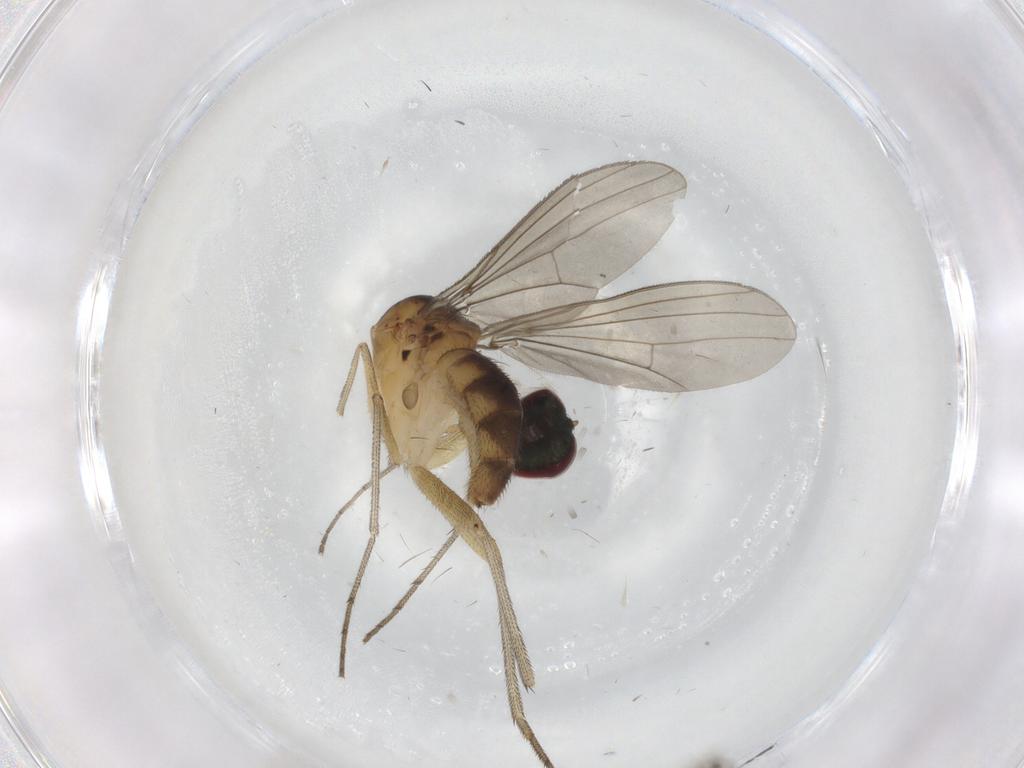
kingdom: Animalia
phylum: Arthropoda
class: Insecta
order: Diptera
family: Dolichopodidae
